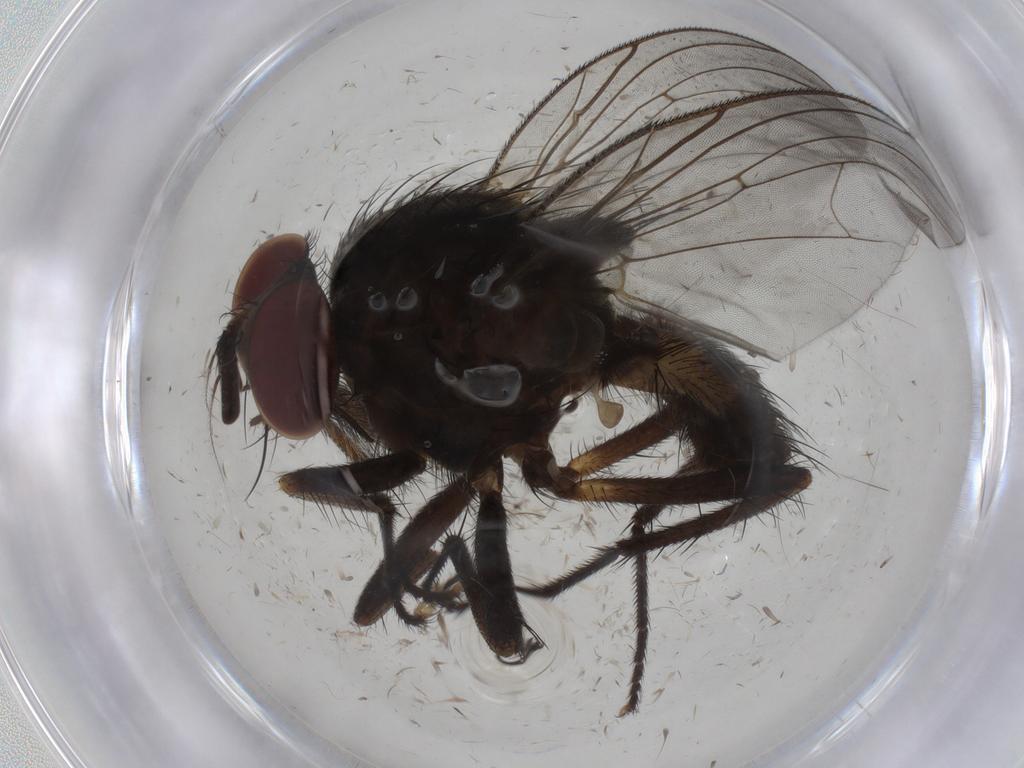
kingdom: Animalia
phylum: Arthropoda
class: Insecta
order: Diptera
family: Anthomyiidae
